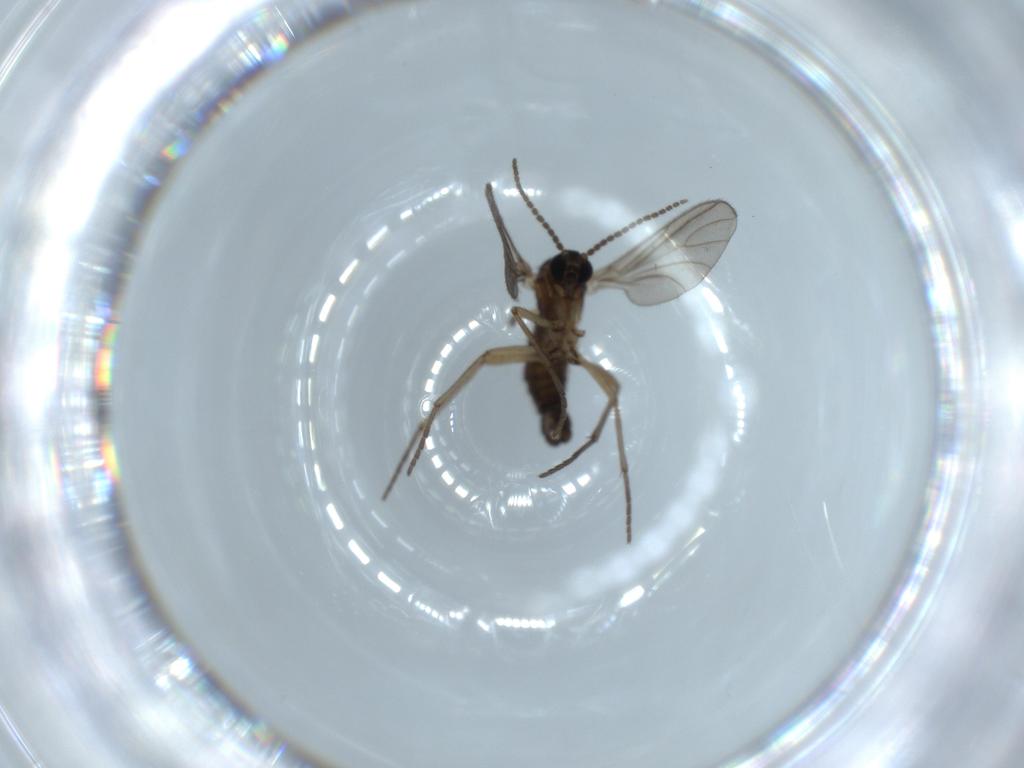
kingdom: Animalia
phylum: Arthropoda
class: Insecta
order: Diptera
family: Sciaridae
